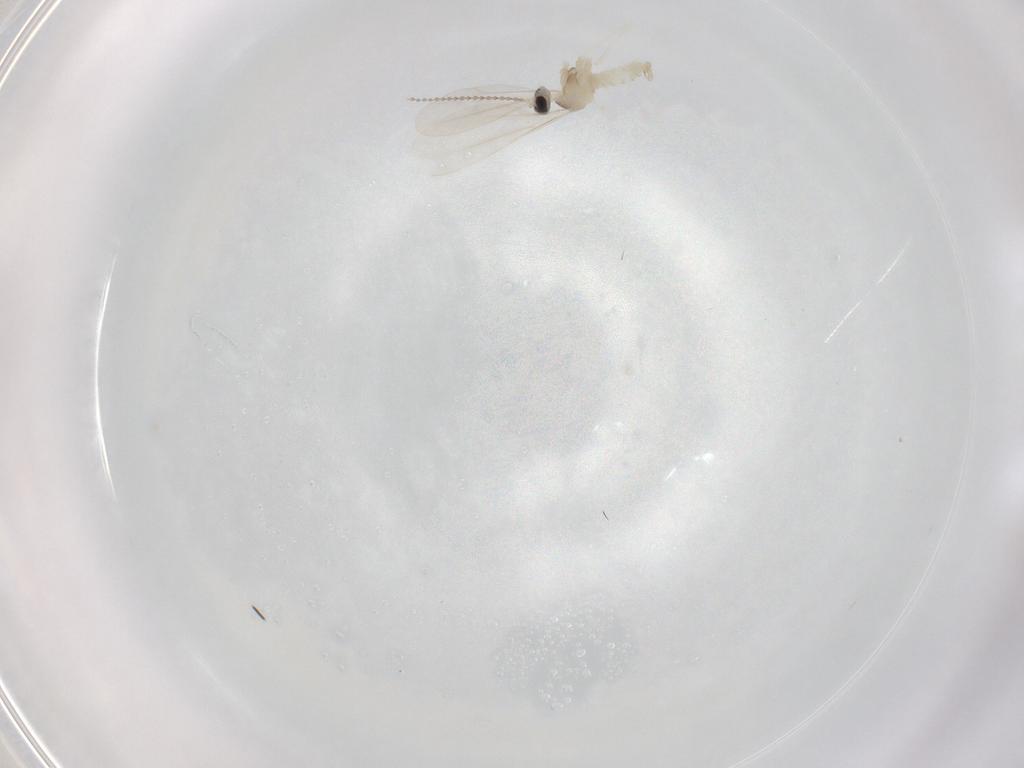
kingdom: Animalia
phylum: Arthropoda
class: Insecta
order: Diptera
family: Cecidomyiidae
